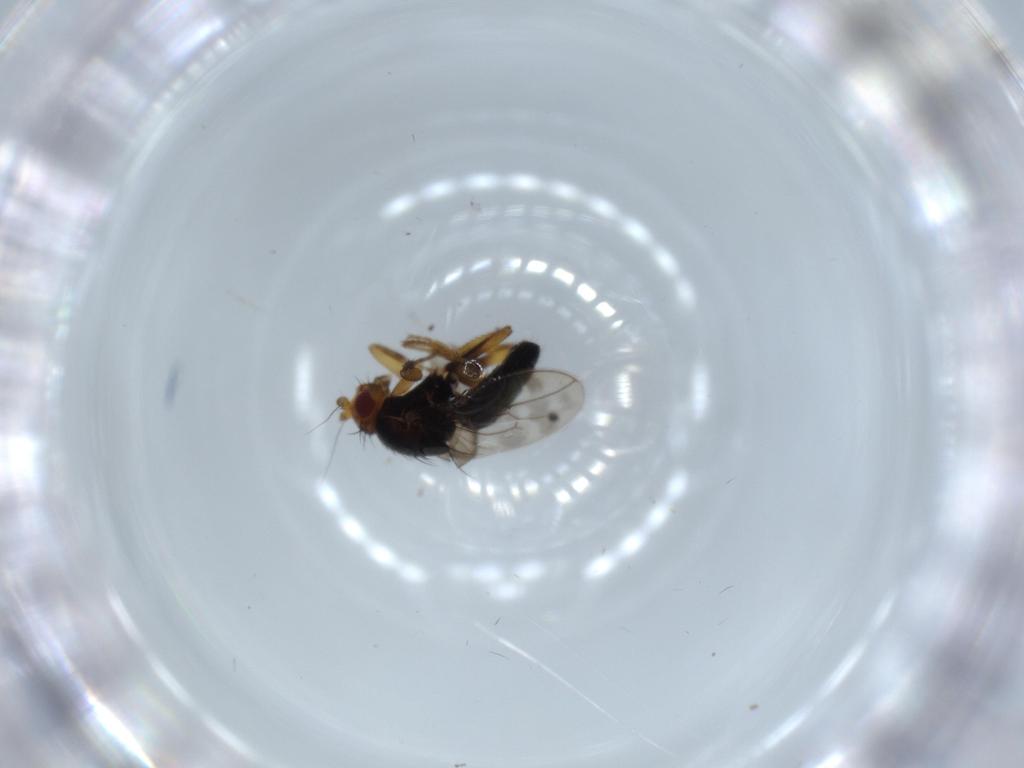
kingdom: Animalia
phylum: Arthropoda
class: Insecta
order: Diptera
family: Sphaeroceridae
